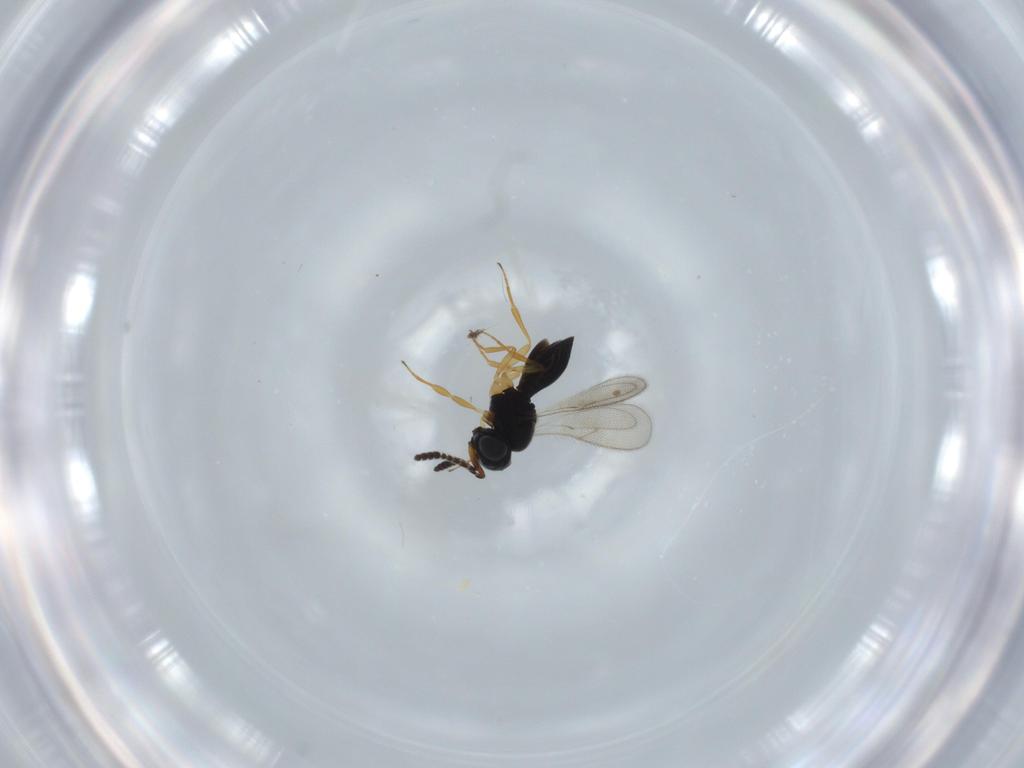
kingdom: Animalia
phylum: Arthropoda
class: Insecta
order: Hymenoptera
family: Scelionidae
